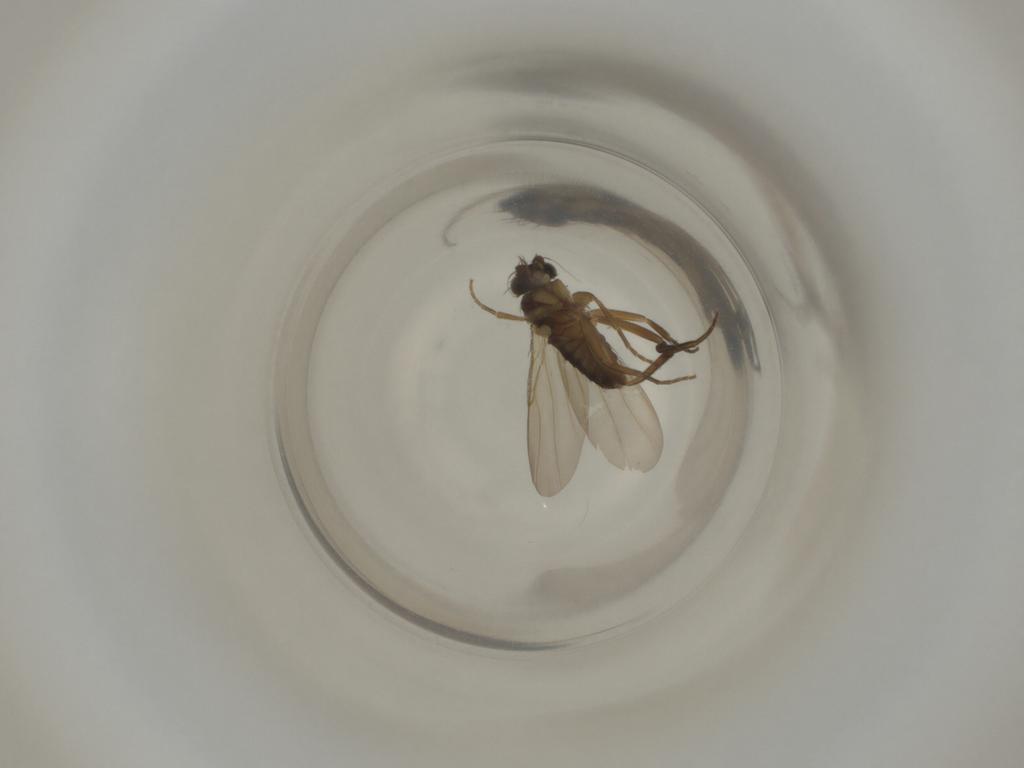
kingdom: Animalia
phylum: Arthropoda
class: Insecta
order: Diptera
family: Phoridae
